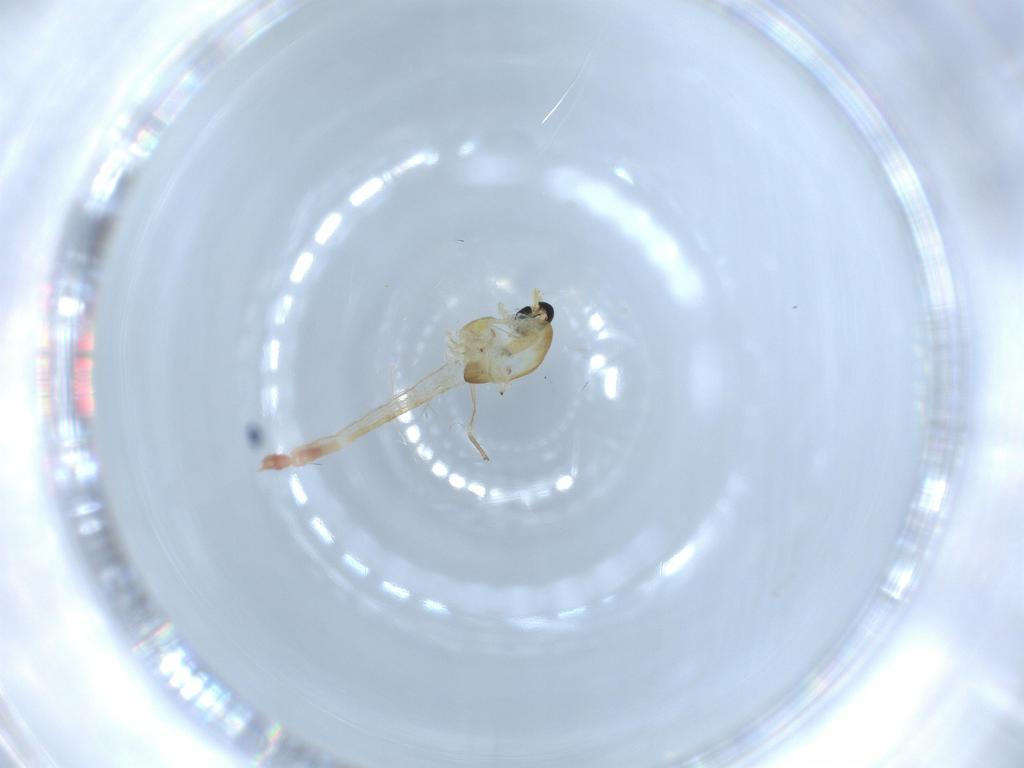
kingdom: Animalia
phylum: Arthropoda
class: Insecta
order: Diptera
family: Chironomidae
